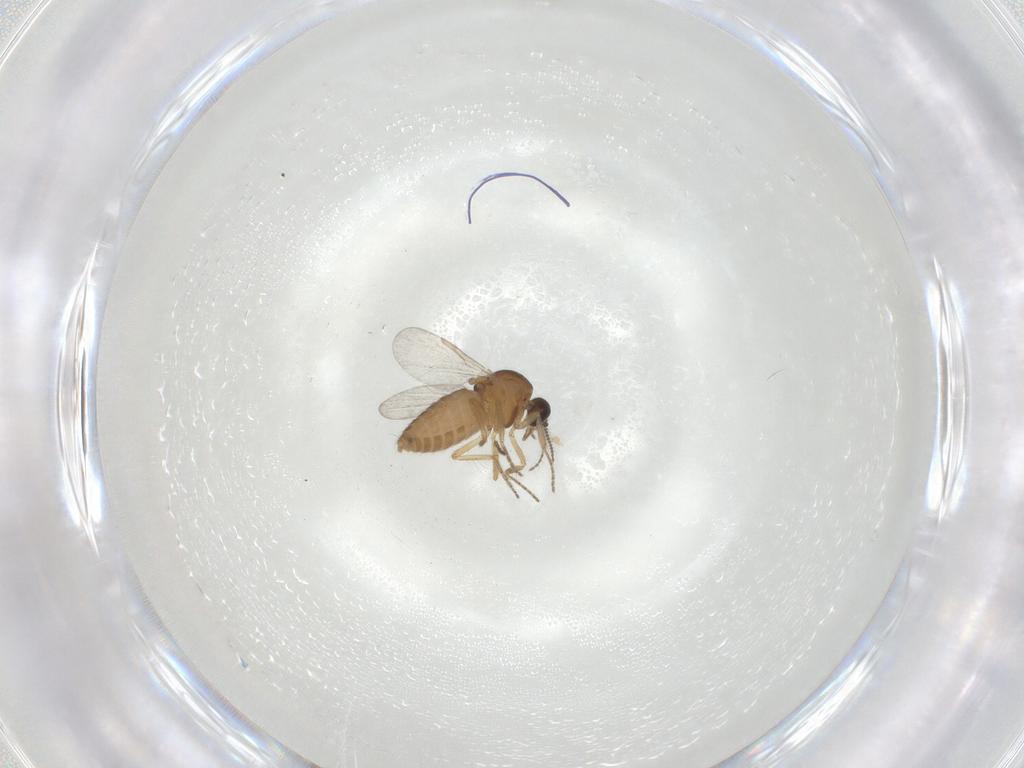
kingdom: Animalia
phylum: Arthropoda
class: Insecta
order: Diptera
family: Ceratopogonidae
